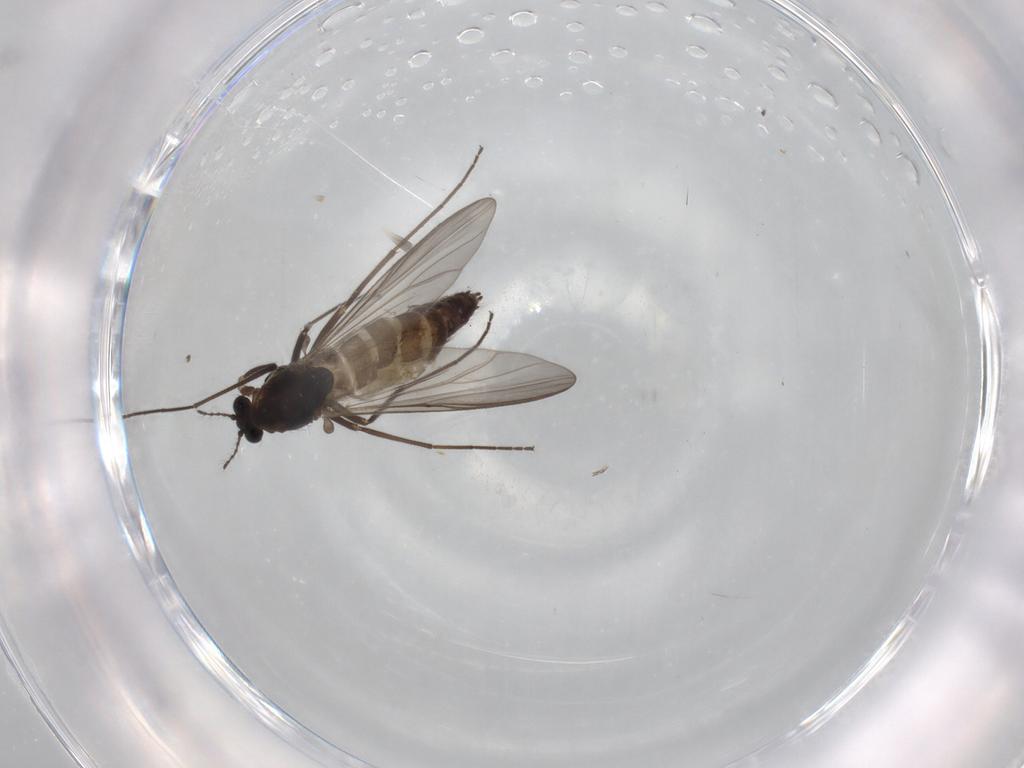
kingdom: Animalia
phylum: Arthropoda
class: Insecta
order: Diptera
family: Chironomidae
